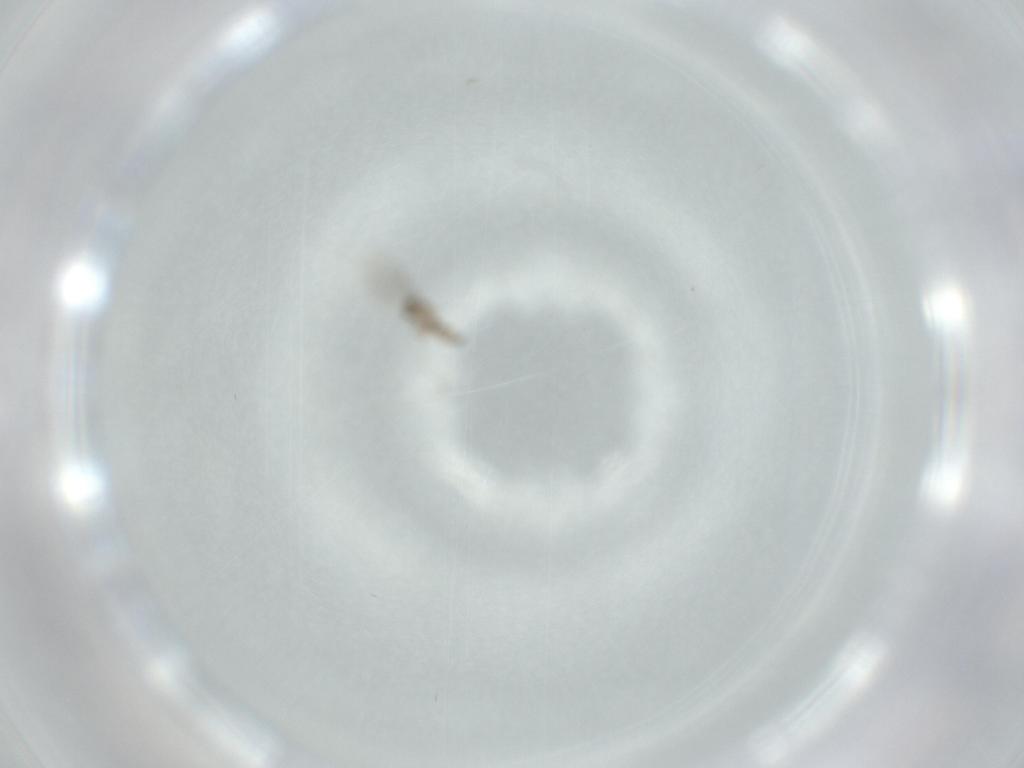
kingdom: Animalia
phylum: Arthropoda
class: Insecta
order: Diptera
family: Cecidomyiidae
